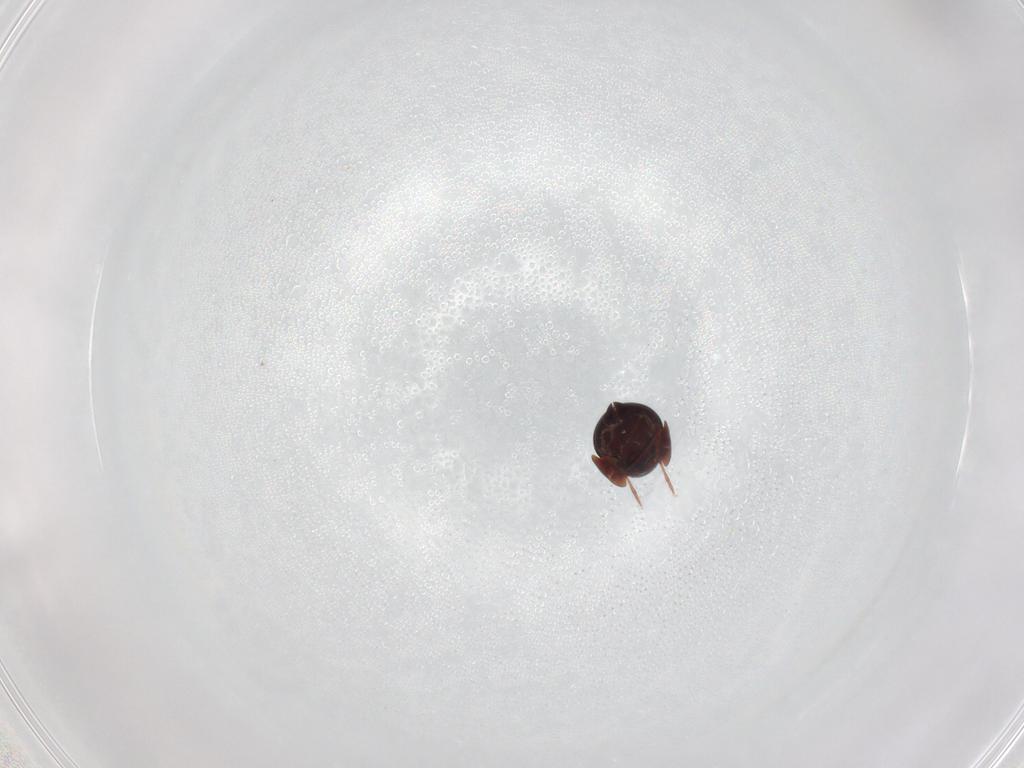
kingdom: Animalia
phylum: Arthropoda
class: Arachnida
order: Sarcoptiformes
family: Galumnidae
